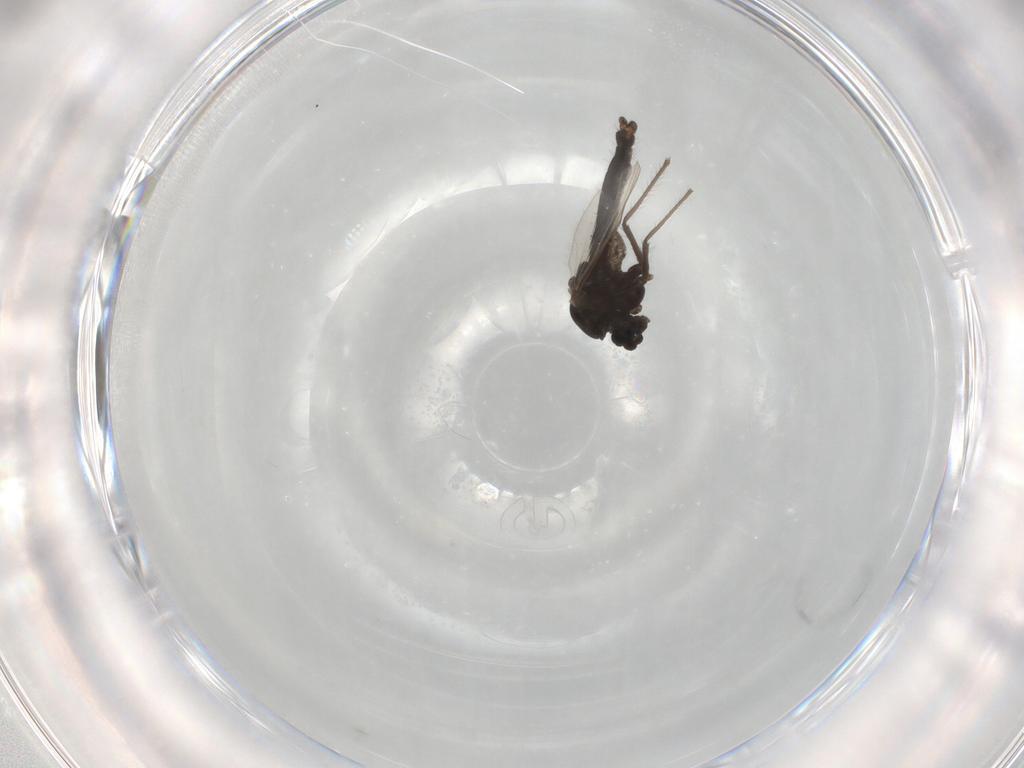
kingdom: Animalia
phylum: Arthropoda
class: Insecta
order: Diptera
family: Chironomidae
